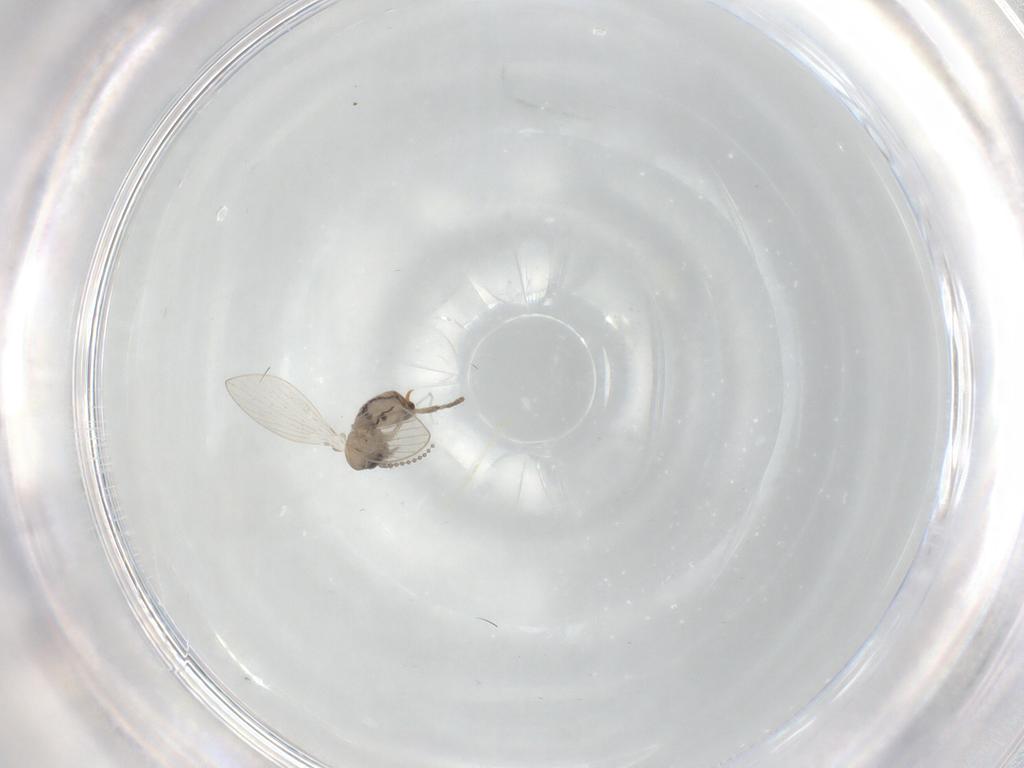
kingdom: Animalia
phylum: Arthropoda
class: Insecta
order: Diptera
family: Psychodidae
